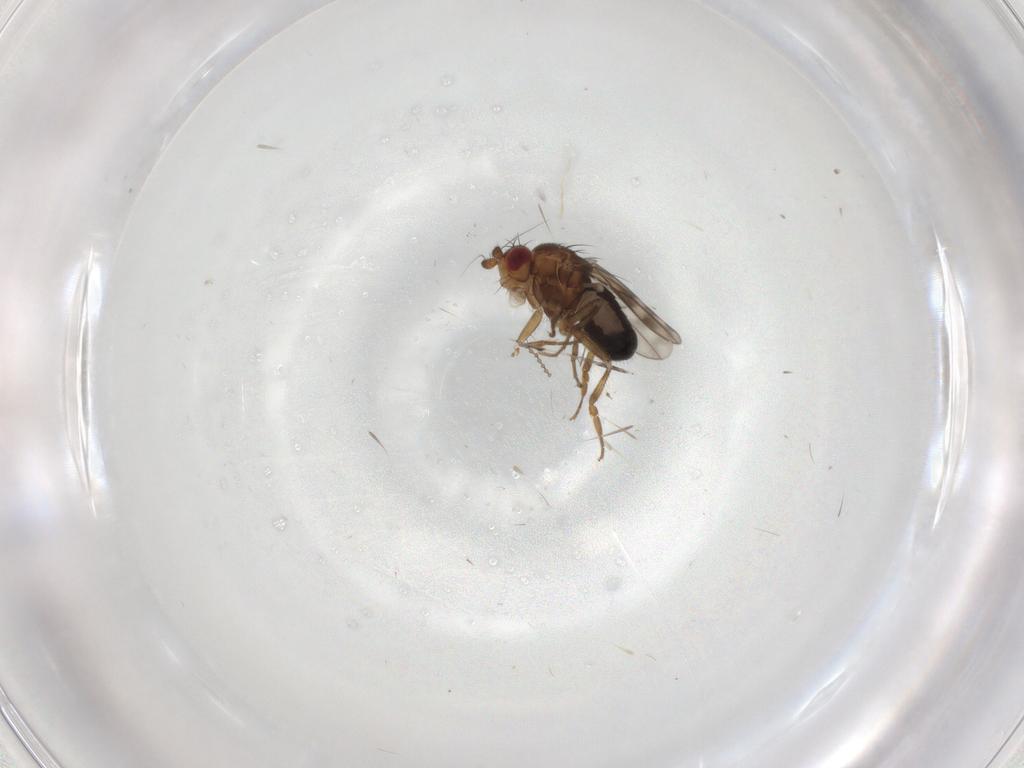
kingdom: Animalia
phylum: Arthropoda
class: Insecta
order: Diptera
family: Sphaeroceridae
